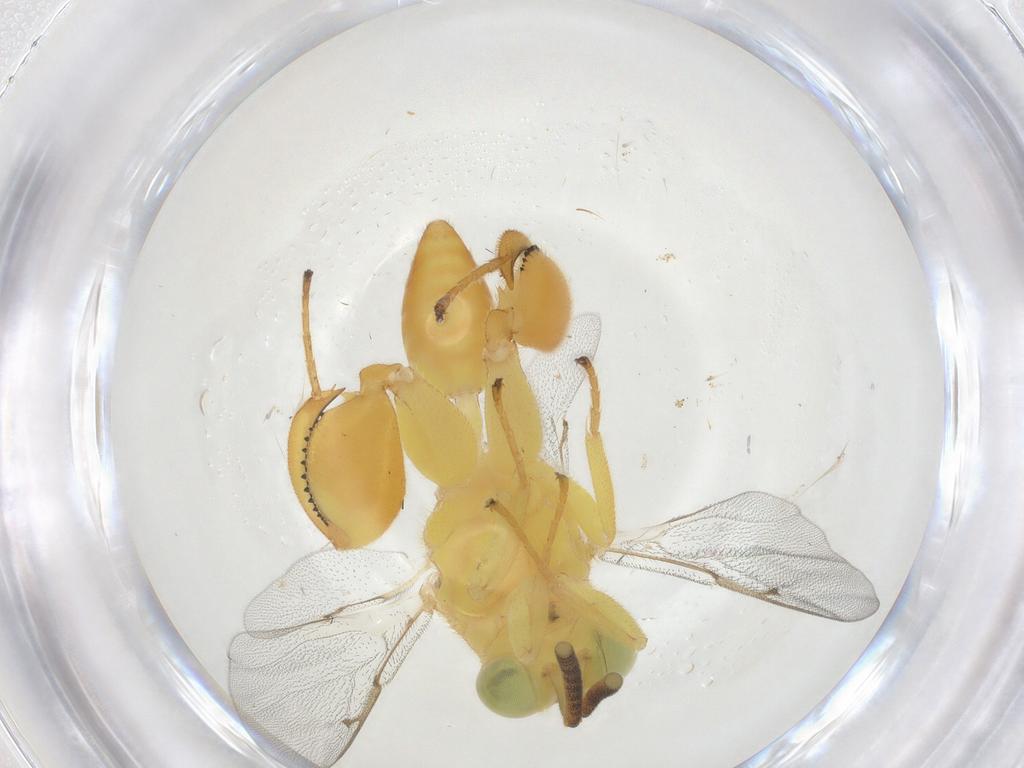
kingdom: Animalia
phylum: Arthropoda
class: Insecta
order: Hymenoptera
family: Chalcididae
